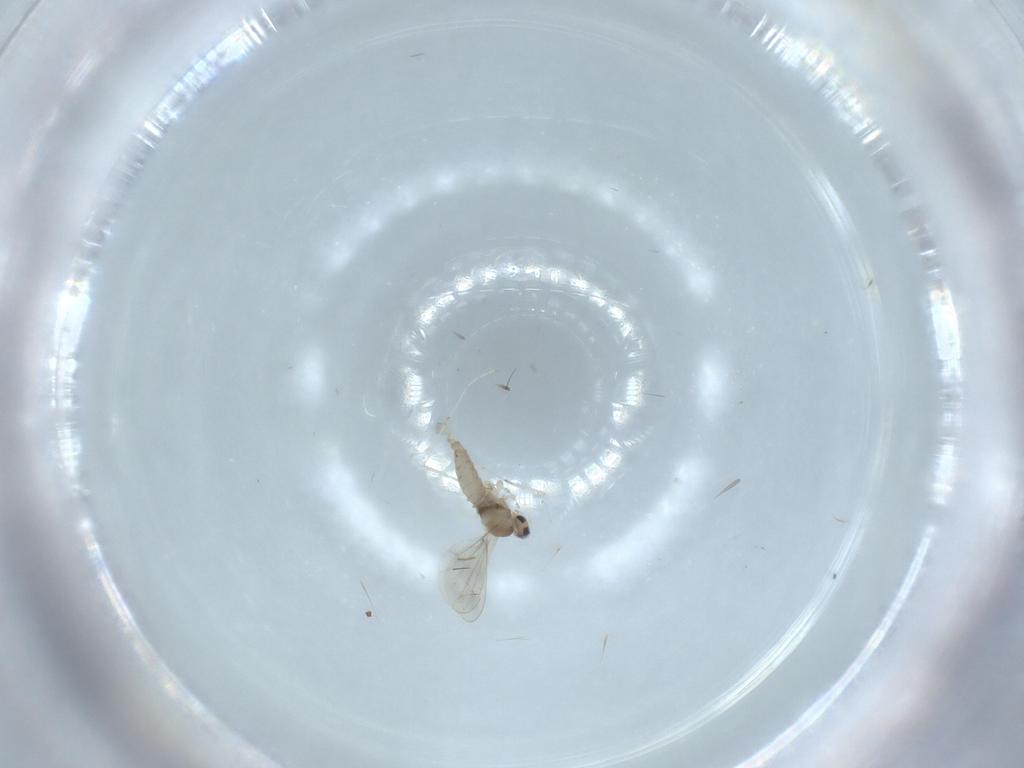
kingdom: Animalia
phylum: Arthropoda
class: Insecta
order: Diptera
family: Cecidomyiidae
